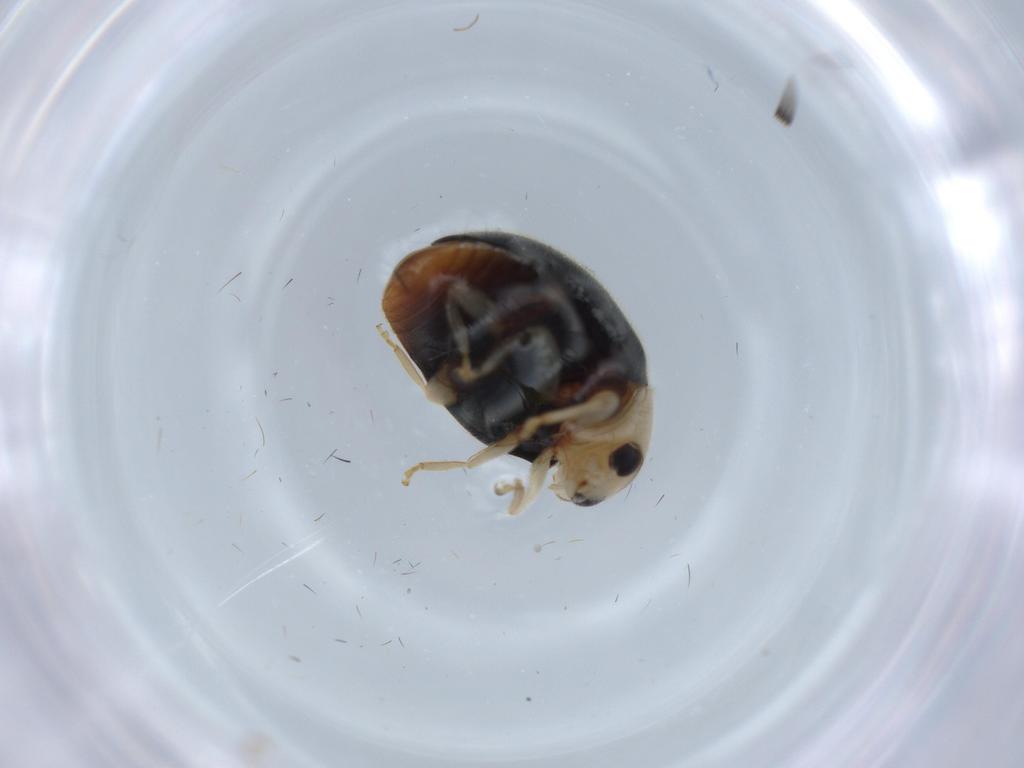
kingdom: Animalia
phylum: Arthropoda
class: Insecta
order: Coleoptera
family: Coccinellidae
